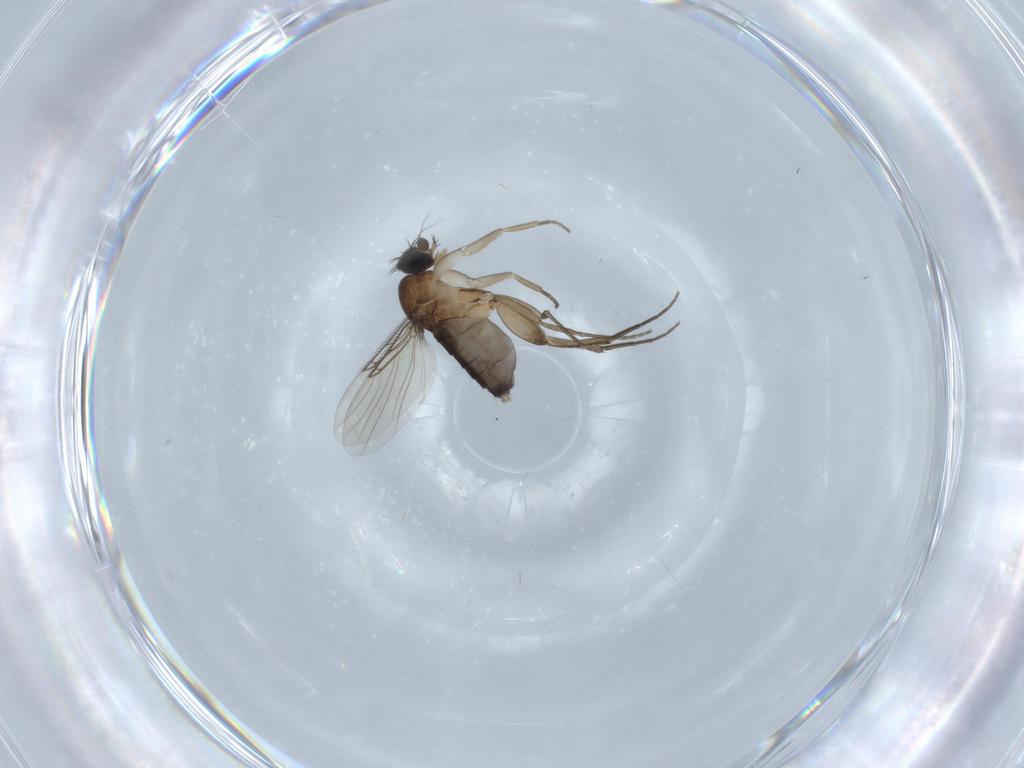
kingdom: Animalia
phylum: Arthropoda
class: Insecta
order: Diptera
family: Phoridae
